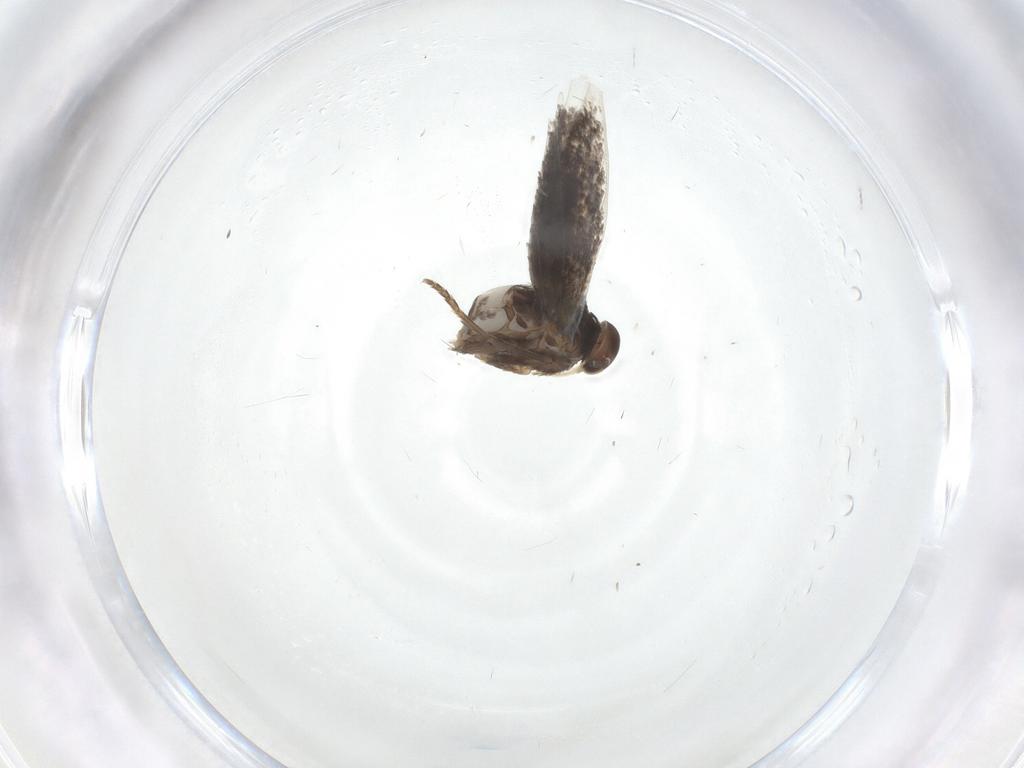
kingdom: Animalia
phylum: Arthropoda
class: Insecta
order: Lepidoptera
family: Elachistidae
